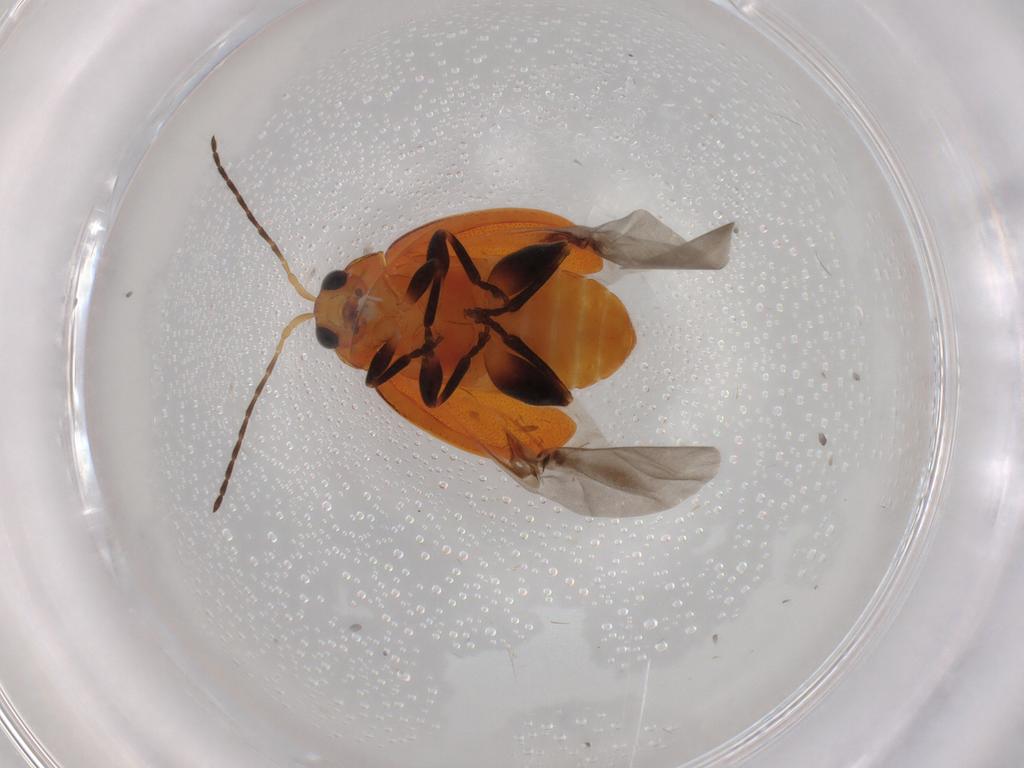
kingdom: Animalia
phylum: Arthropoda
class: Insecta
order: Coleoptera
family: Chrysomelidae
